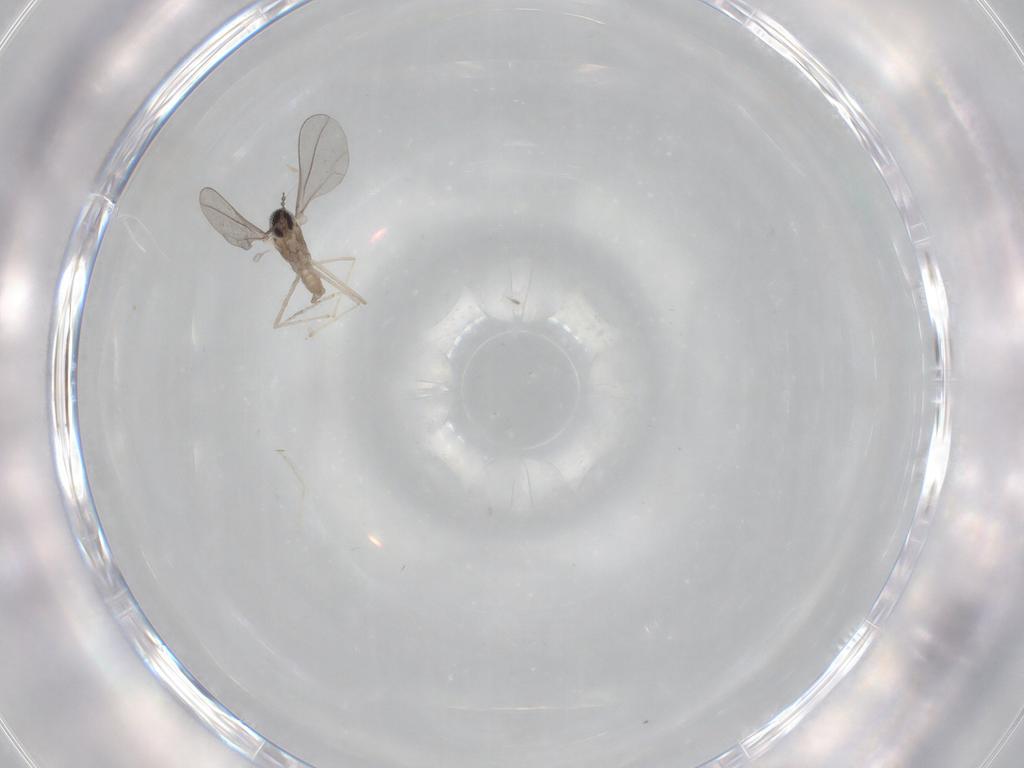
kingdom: Animalia
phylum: Arthropoda
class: Insecta
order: Diptera
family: Cecidomyiidae
